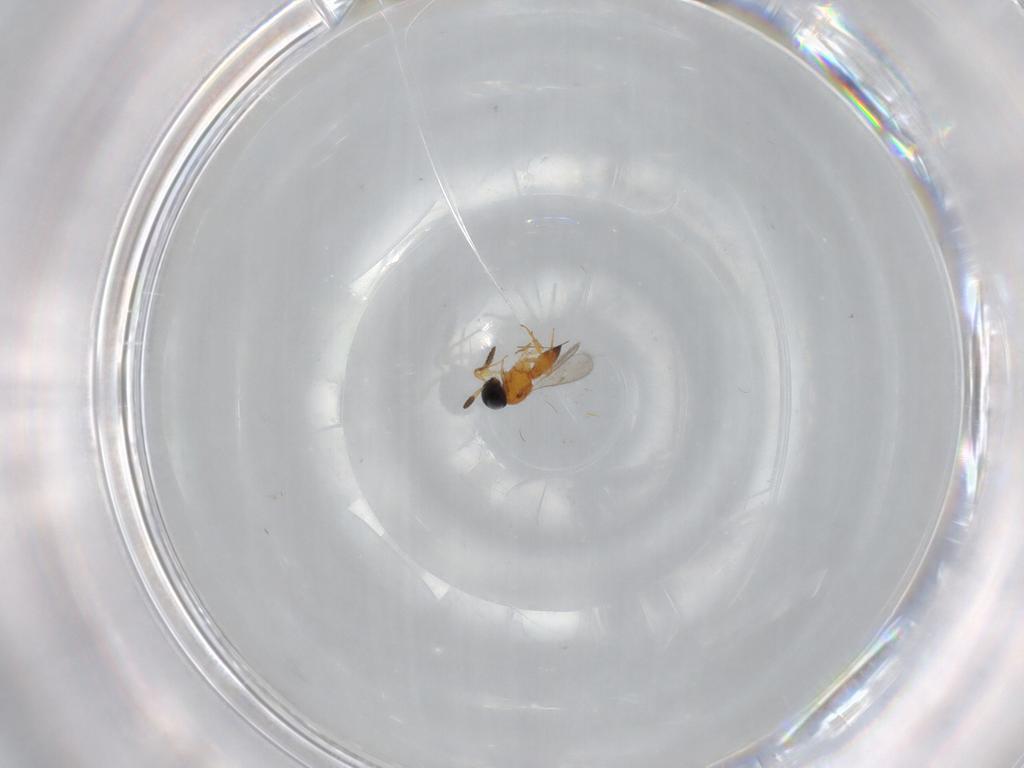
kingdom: Animalia
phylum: Arthropoda
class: Insecta
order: Hymenoptera
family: Scelionidae
